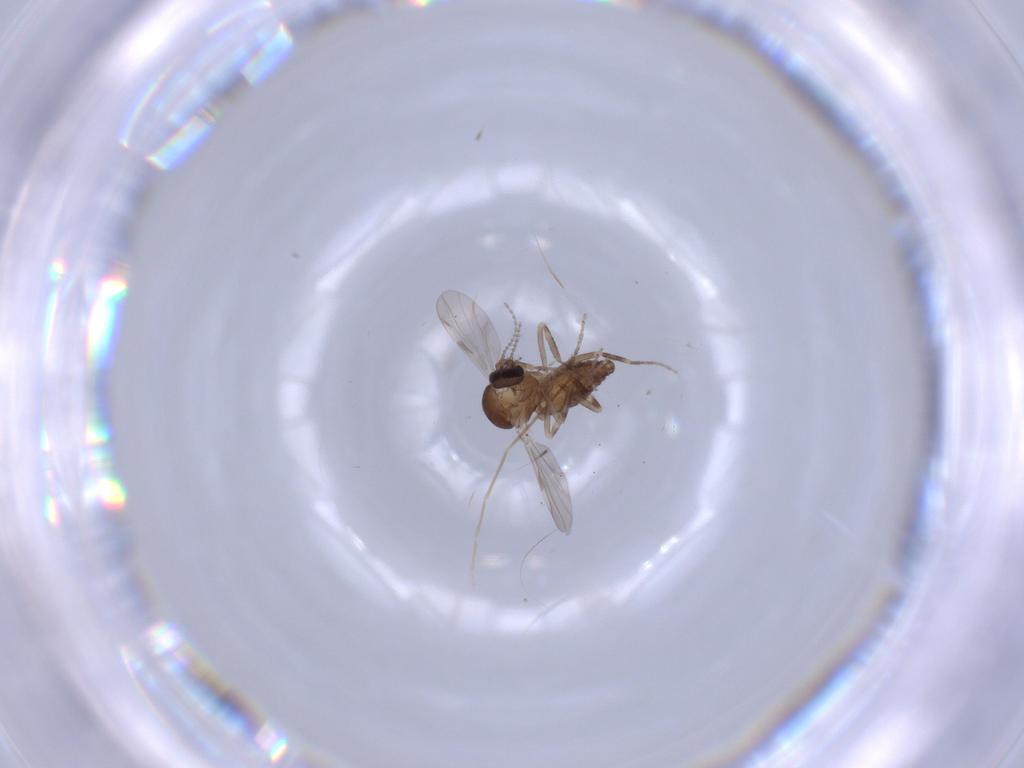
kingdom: Animalia
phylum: Arthropoda
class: Insecta
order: Diptera
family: Ceratopogonidae
